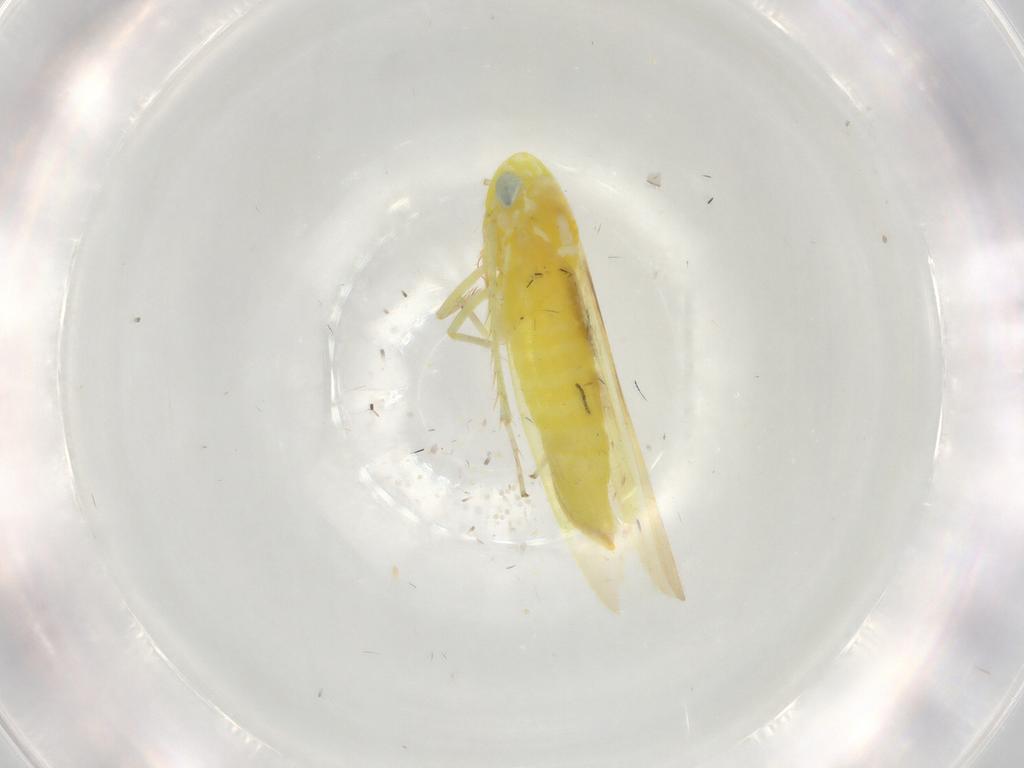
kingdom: Animalia
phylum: Arthropoda
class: Insecta
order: Hemiptera
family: Cicadellidae
